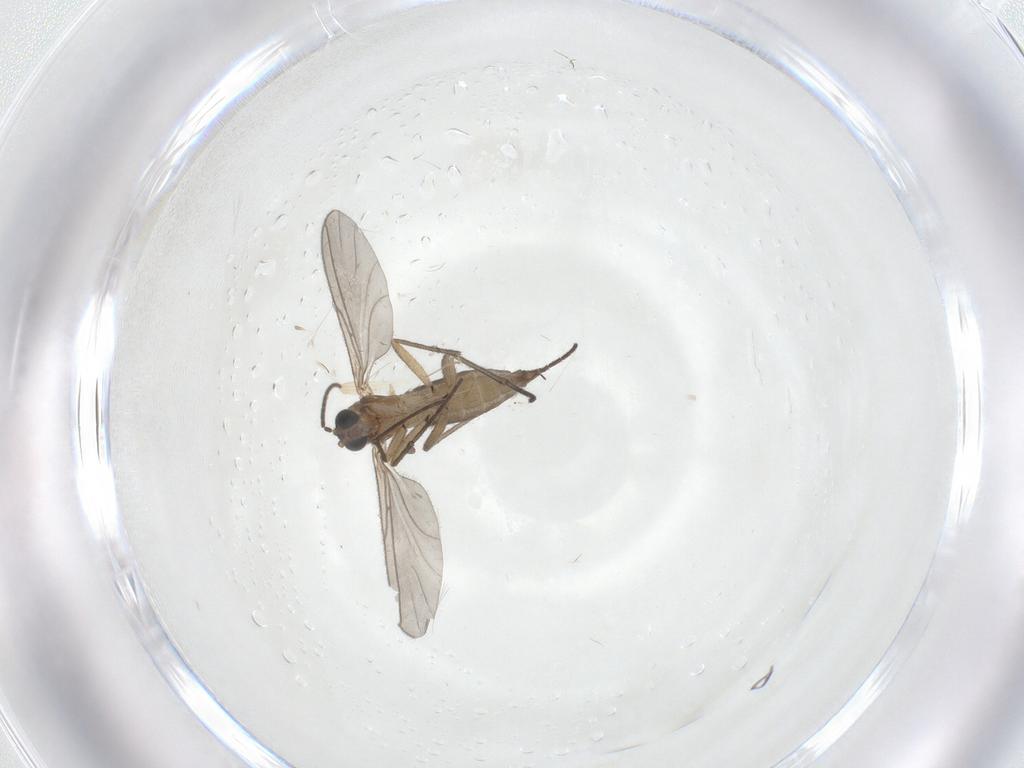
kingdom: Animalia
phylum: Arthropoda
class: Insecta
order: Diptera
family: Sciaridae
